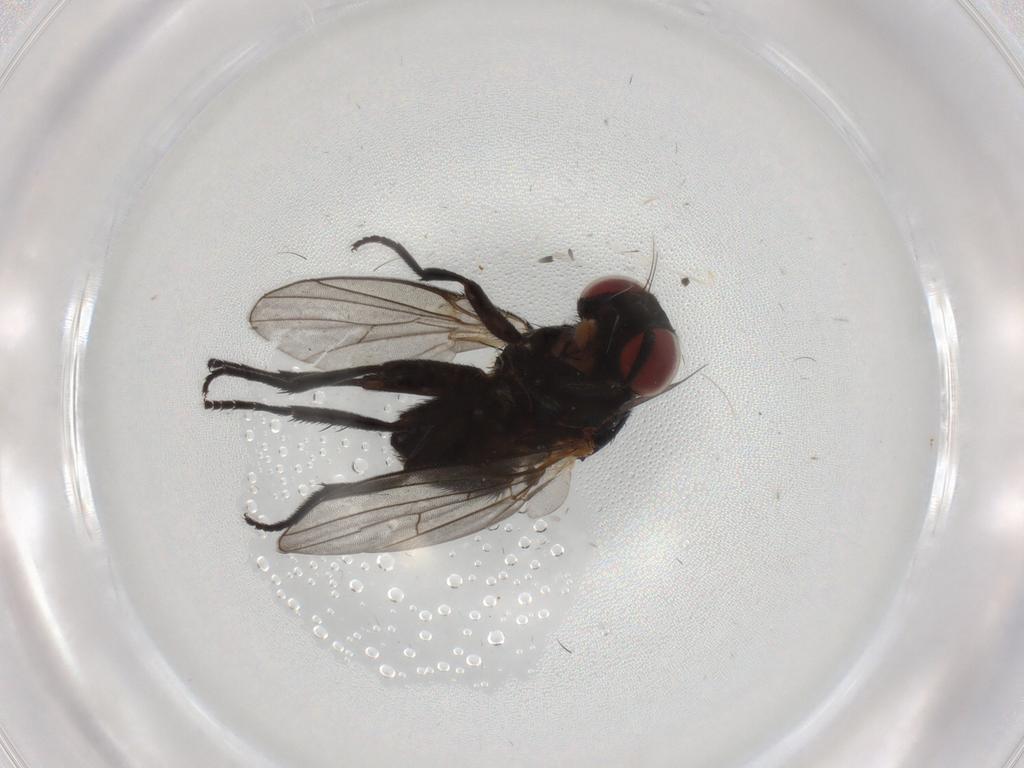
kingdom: Animalia
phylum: Arthropoda
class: Insecta
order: Diptera
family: Agromyzidae
